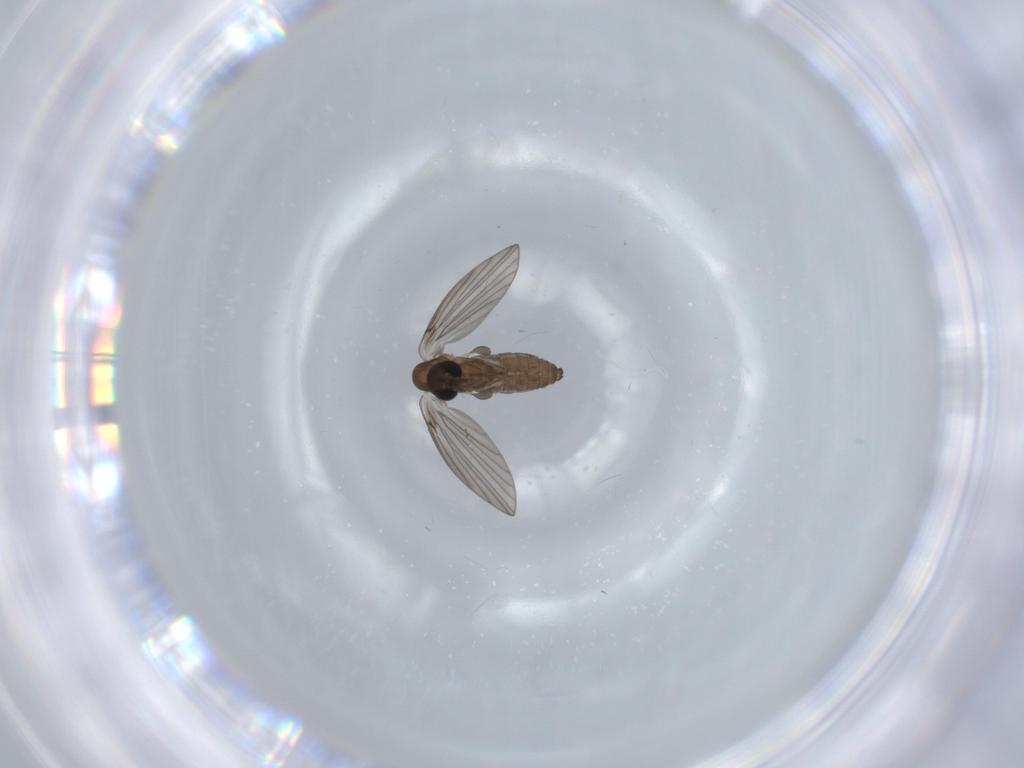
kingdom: Animalia
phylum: Arthropoda
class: Insecta
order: Diptera
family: Psychodidae
